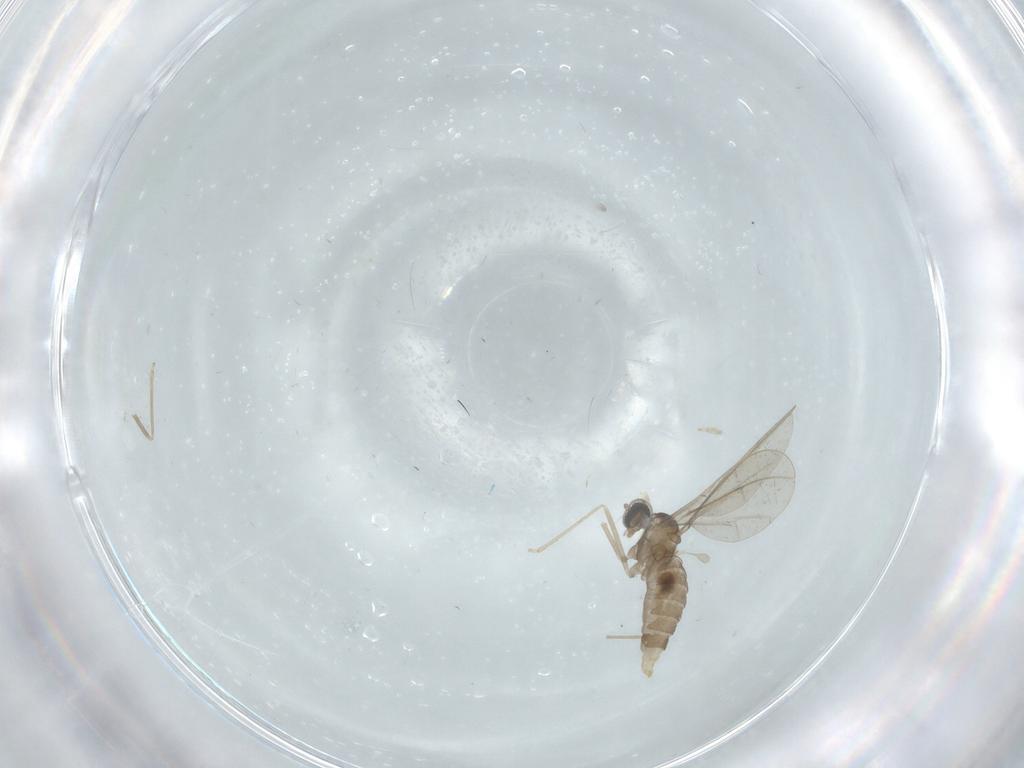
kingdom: Animalia
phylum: Arthropoda
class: Insecta
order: Diptera
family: Cecidomyiidae
